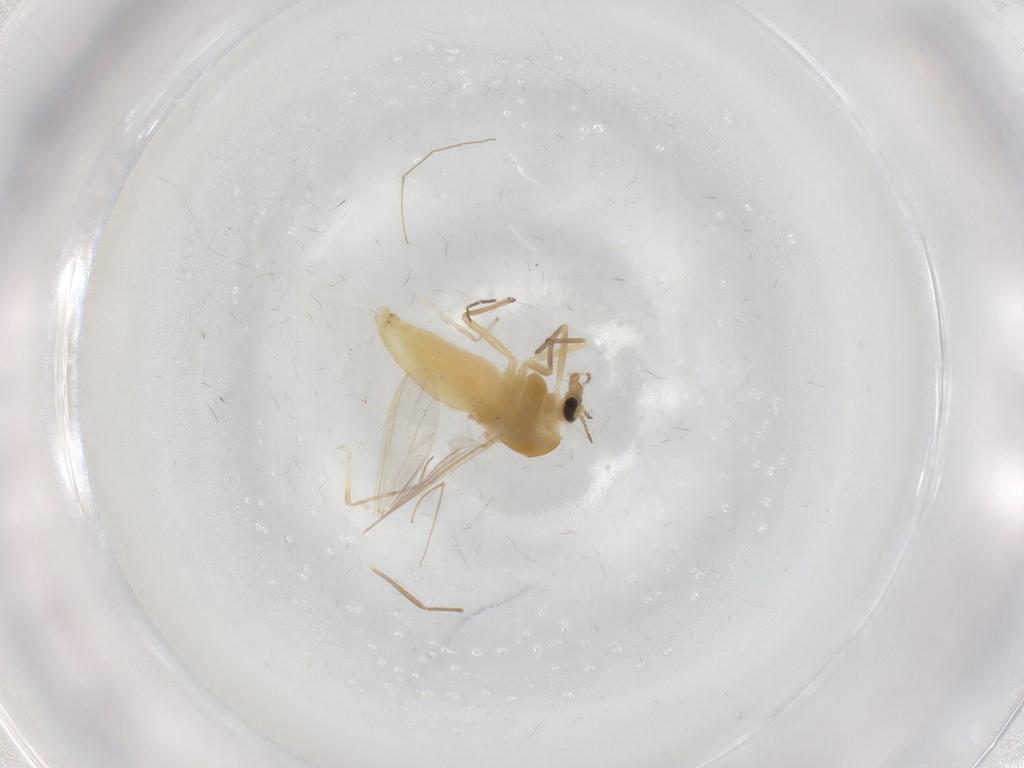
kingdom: Animalia
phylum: Arthropoda
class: Insecta
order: Diptera
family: Chironomidae
